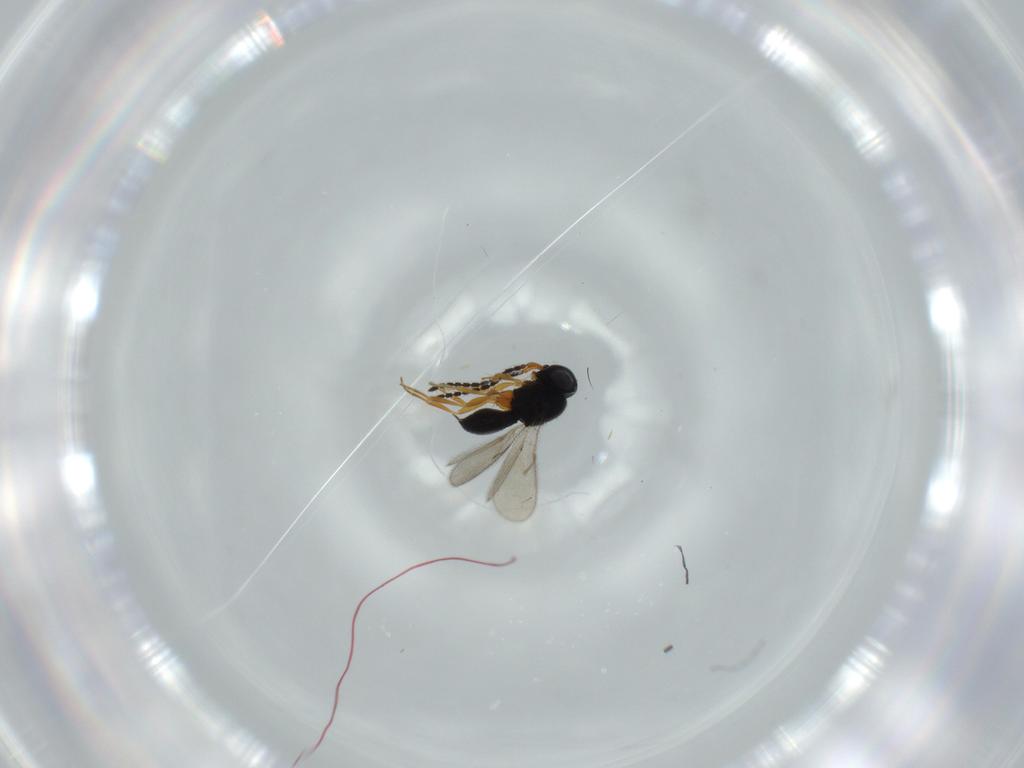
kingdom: Animalia
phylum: Arthropoda
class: Insecta
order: Hymenoptera
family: Scelionidae
